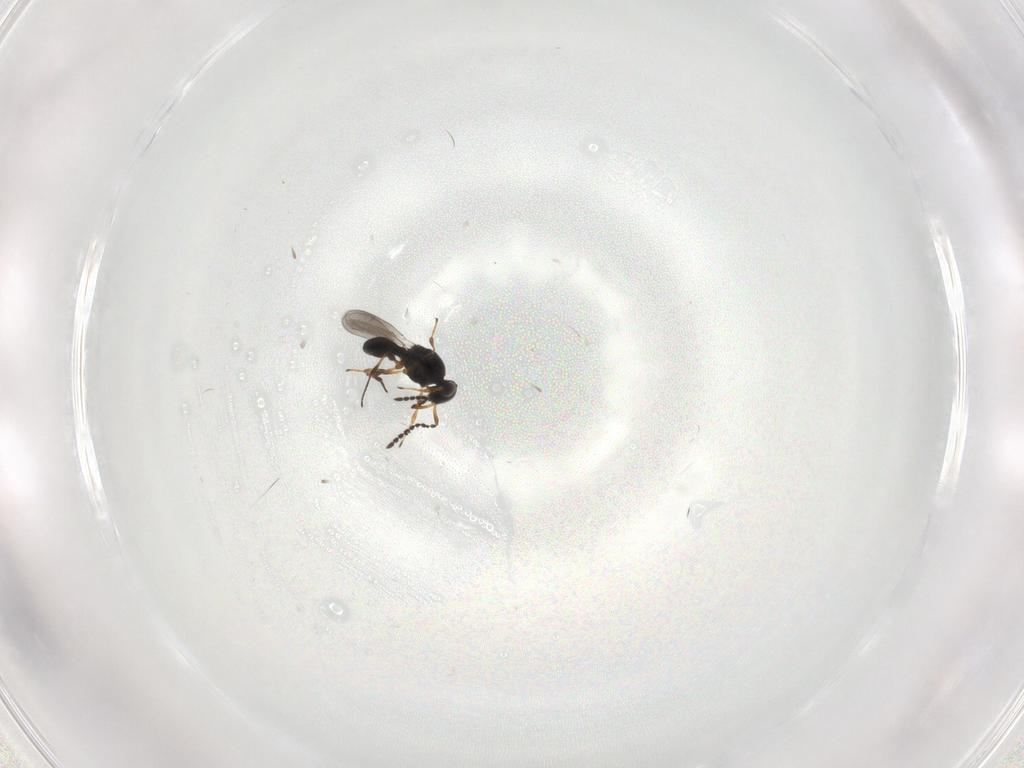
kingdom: Animalia
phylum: Arthropoda
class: Insecta
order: Hymenoptera
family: Platygastridae
